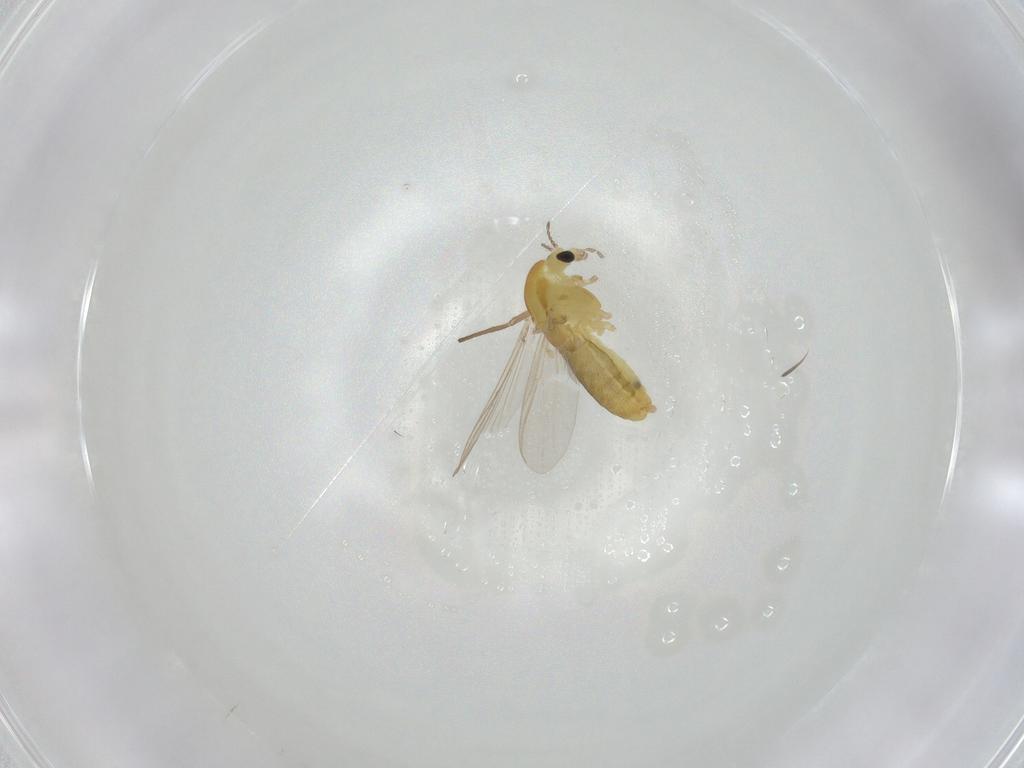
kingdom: Animalia
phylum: Arthropoda
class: Insecta
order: Diptera
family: Chironomidae
